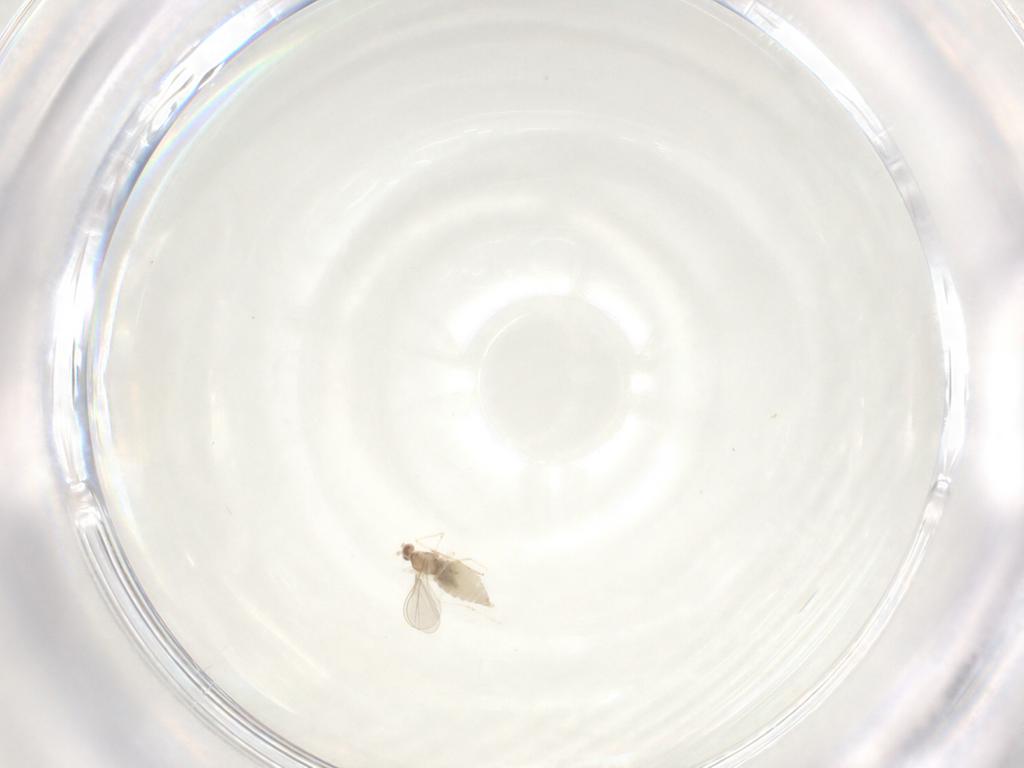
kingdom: Animalia
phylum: Arthropoda
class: Insecta
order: Diptera
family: Cecidomyiidae
